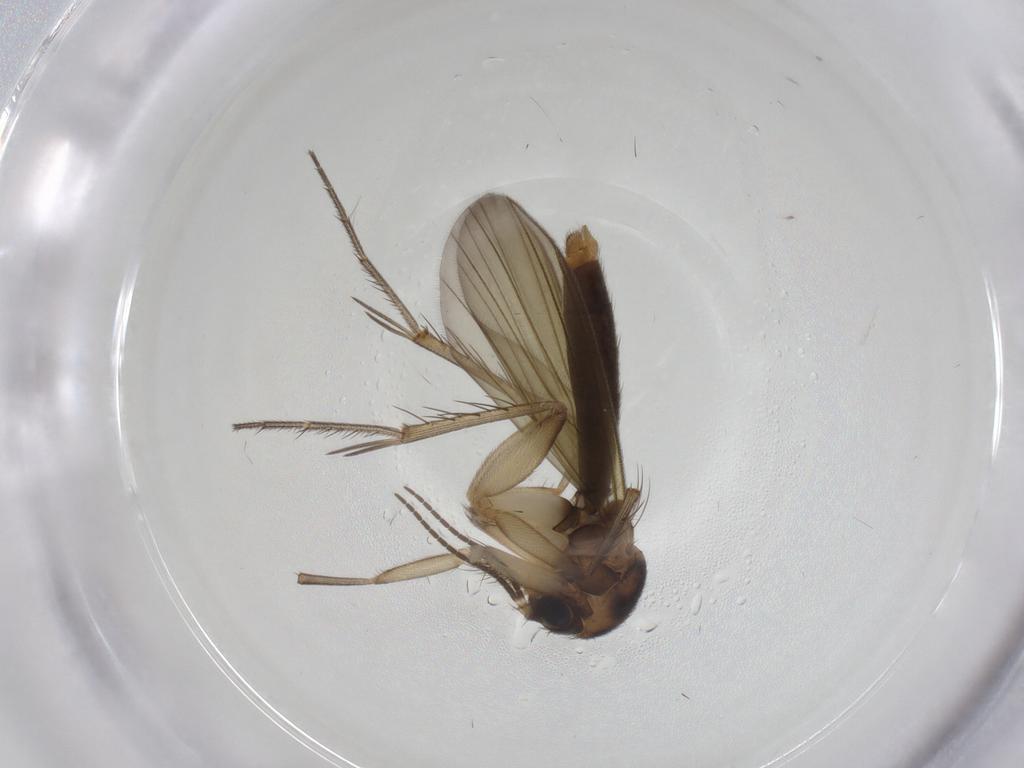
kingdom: Animalia
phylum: Arthropoda
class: Insecta
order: Diptera
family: Mycetophilidae
